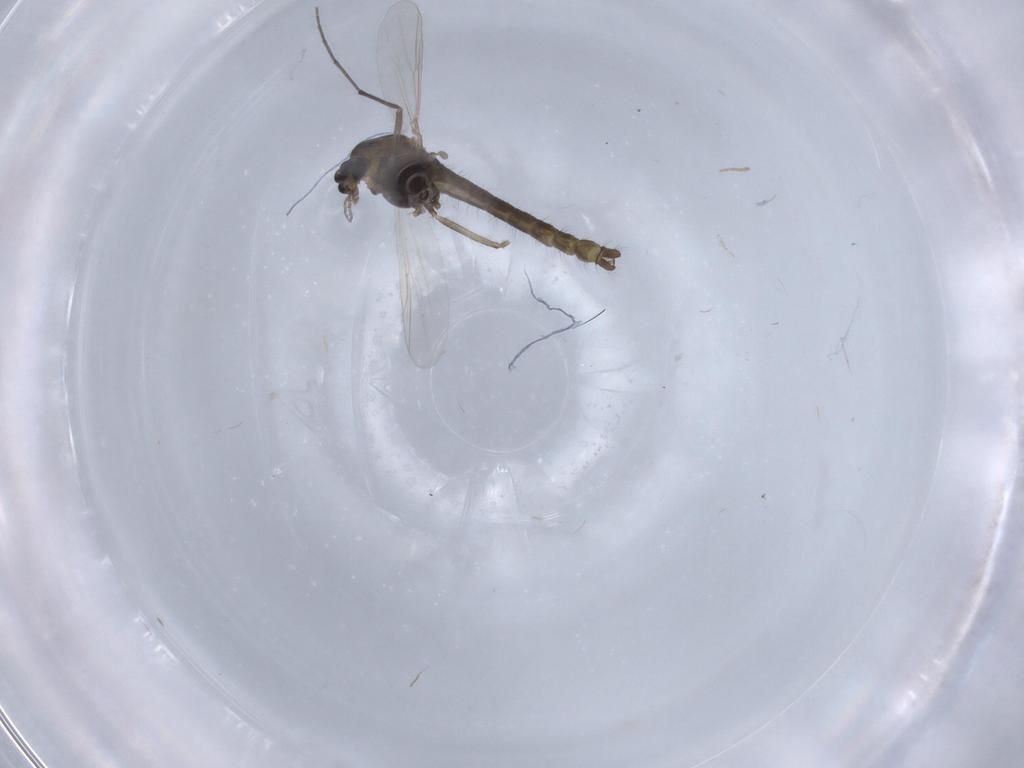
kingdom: Animalia
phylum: Arthropoda
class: Insecta
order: Diptera
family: Chironomidae
